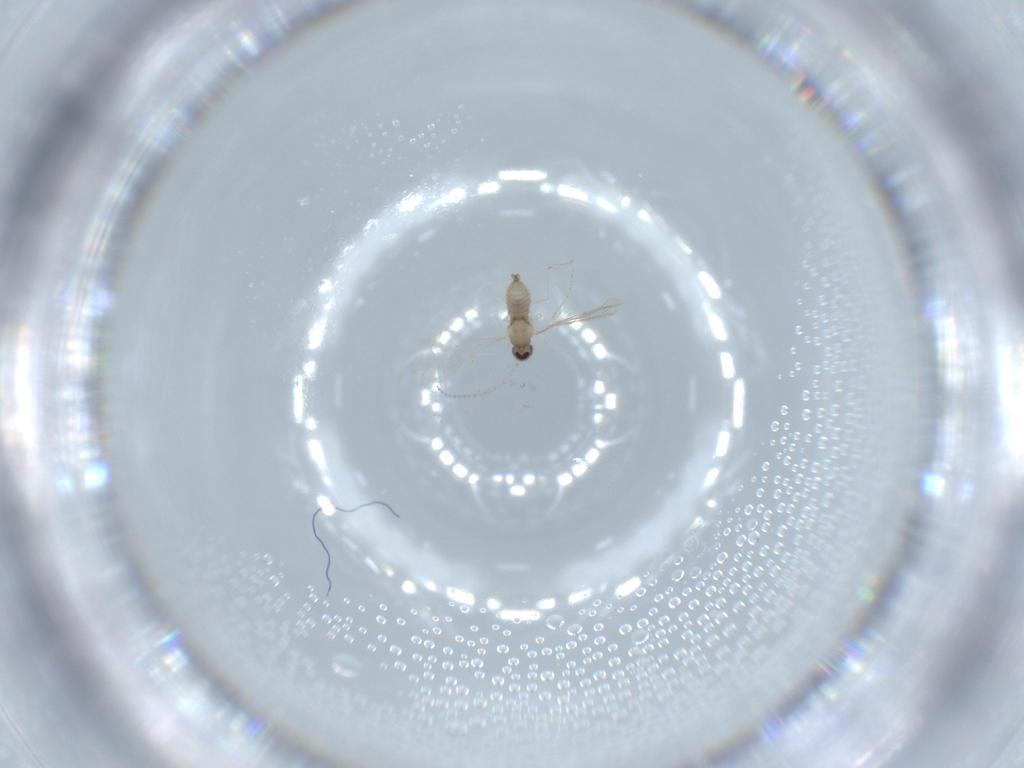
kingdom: Animalia
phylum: Arthropoda
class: Insecta
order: Diptera
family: Cecidomyiidae
